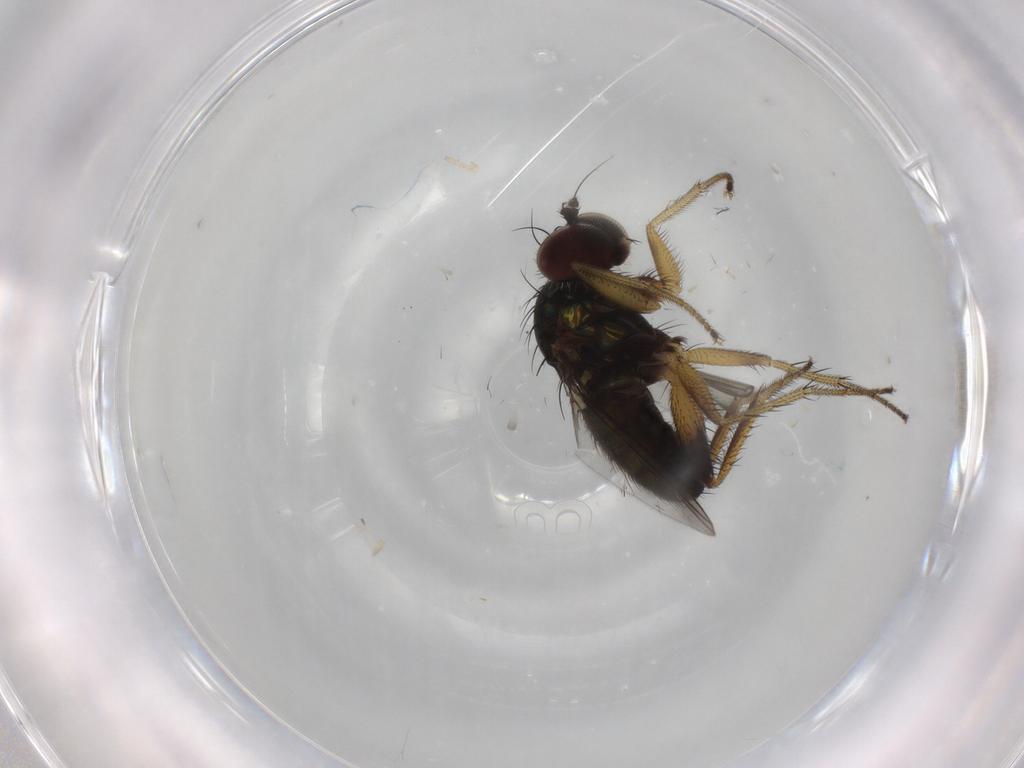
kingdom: Animalia
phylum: Arthropoda
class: Insecta
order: Diptera
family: Dolichopodidae
